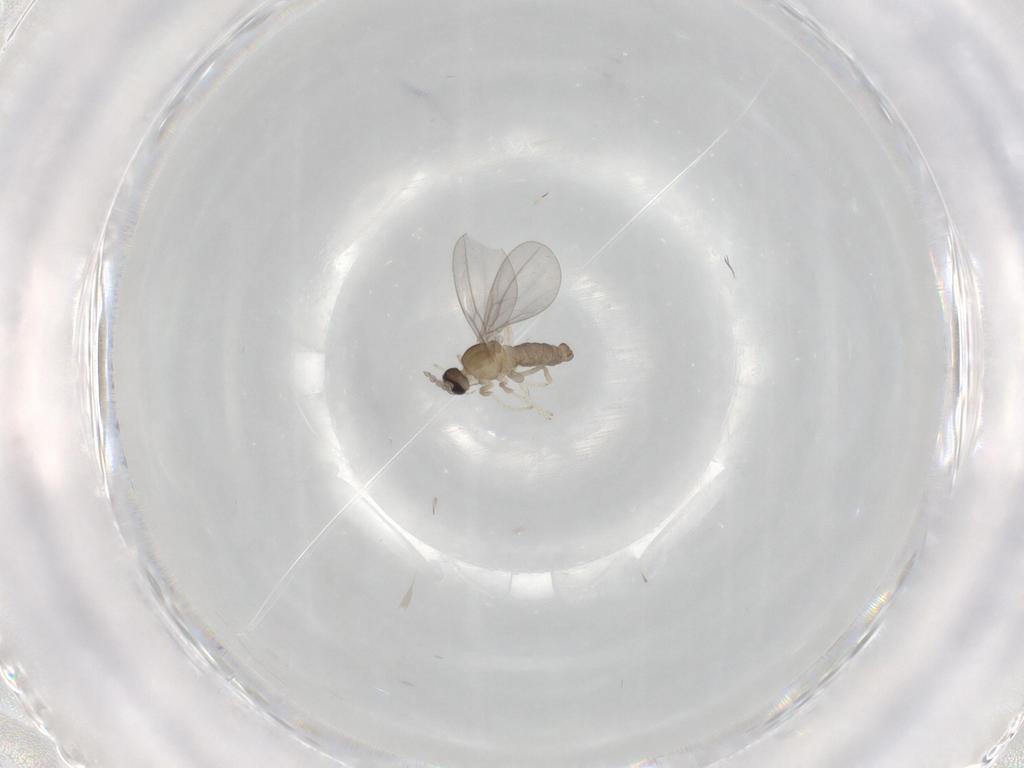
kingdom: Animalia
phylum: Arthropoda
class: Insecta
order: Diptera
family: Cecidomyiidae
